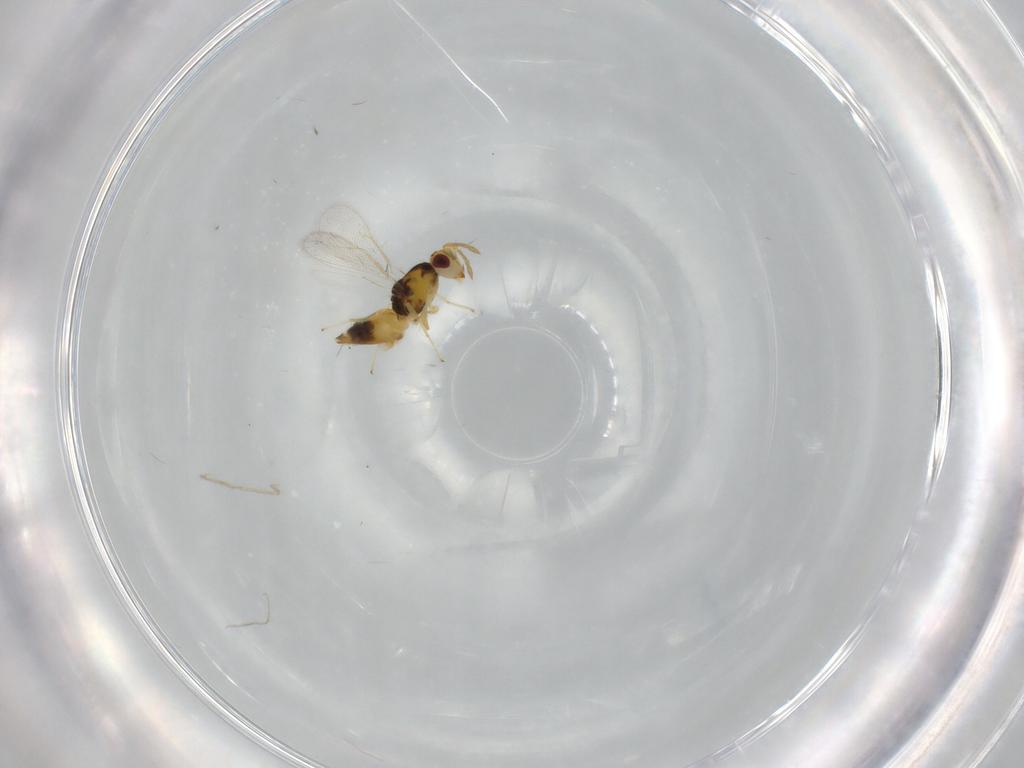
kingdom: Animalia
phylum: Arthropoda
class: Insecta
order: Hymenoptera
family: Eulophidae
